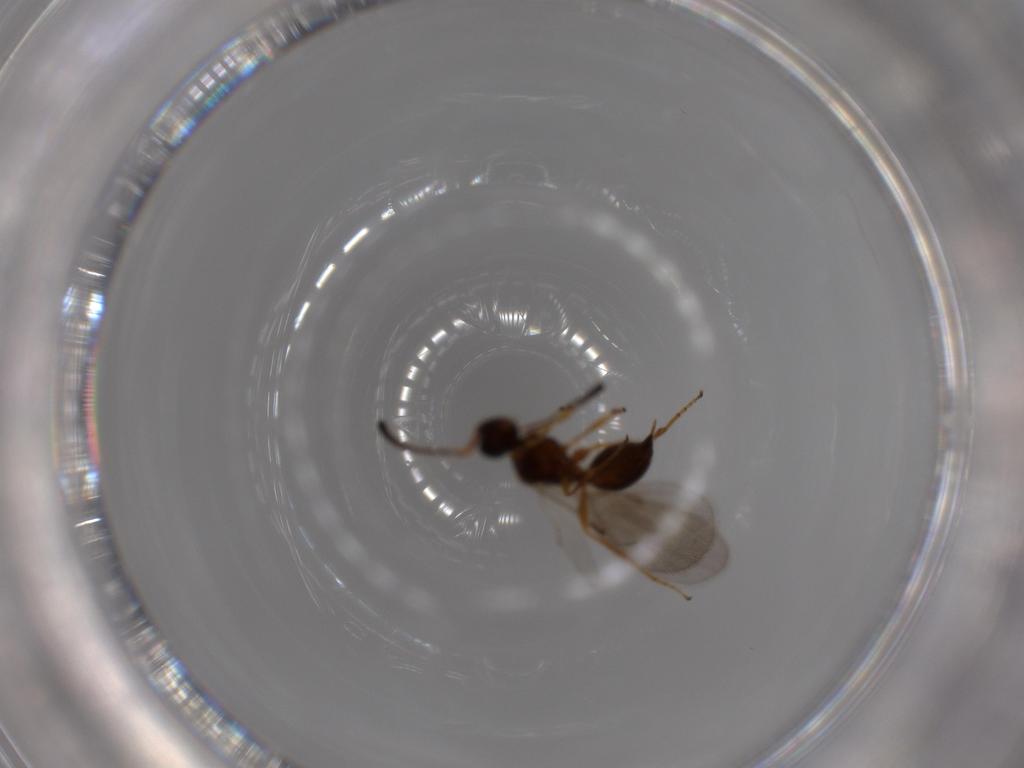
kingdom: Animalia
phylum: Arthropoda
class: Insecta
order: Hymenoptera
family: Diapriidae
